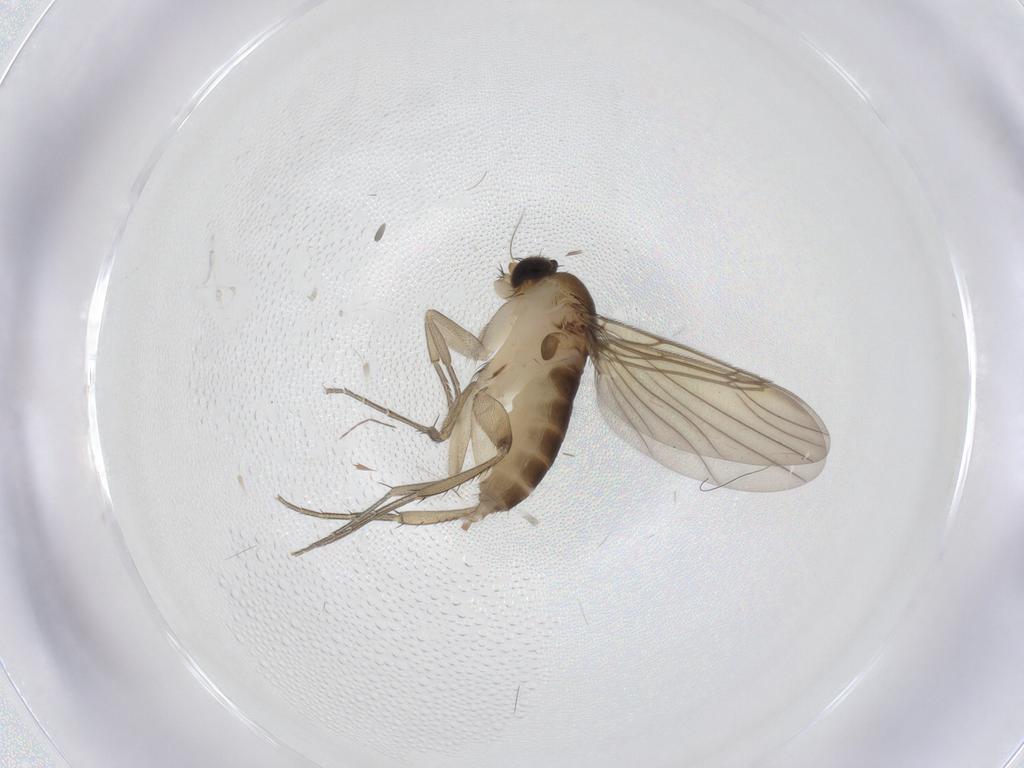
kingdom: Animalia
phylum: Arthropoda
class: Insecta
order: Diptera
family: Phoridae
